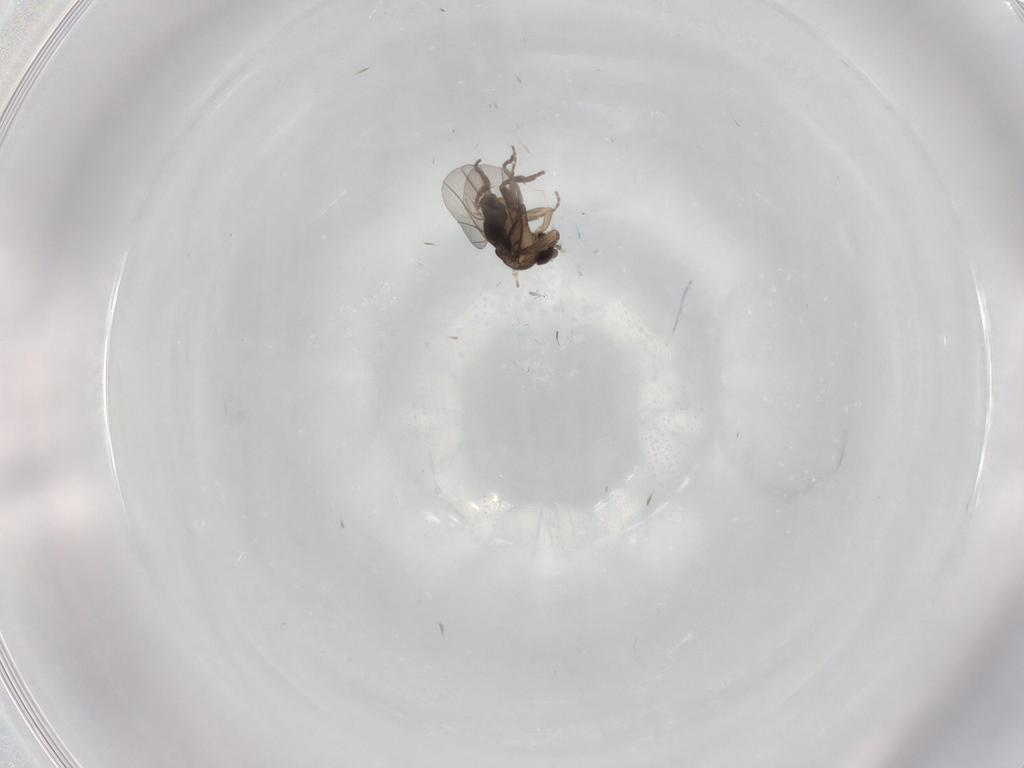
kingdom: Animalia
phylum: Arthropoda
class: Insecta
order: Diptera
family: Phoridae
